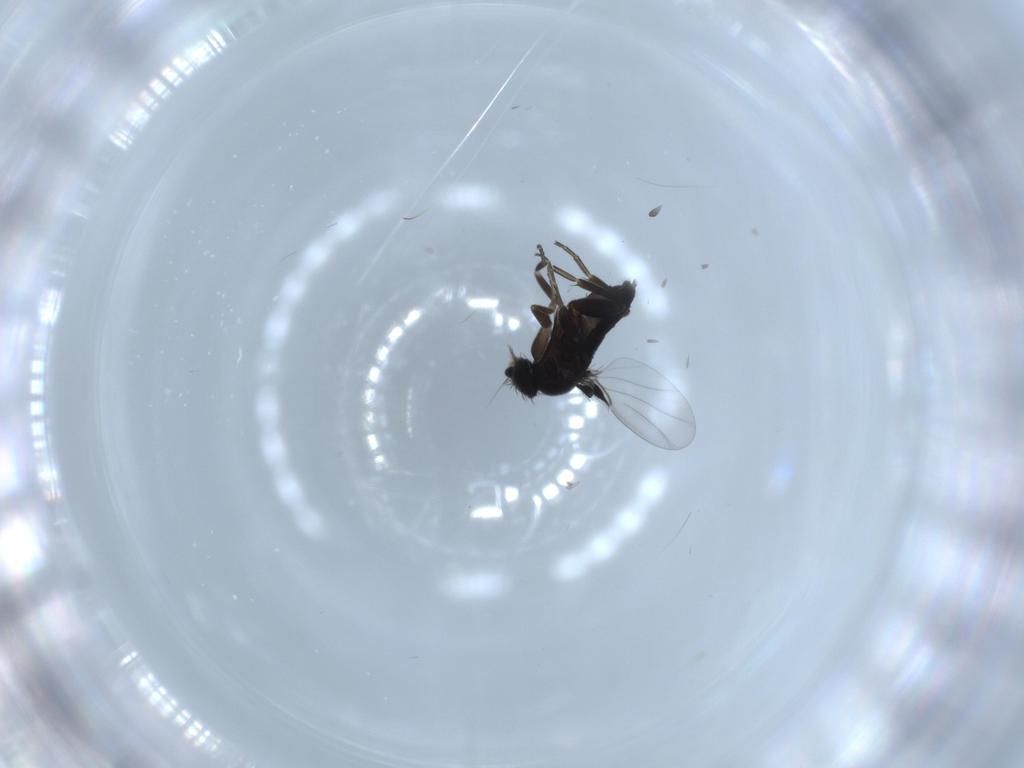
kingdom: Animalia
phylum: Arthropoda
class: Insecta
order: Diptera
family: Phoridae
